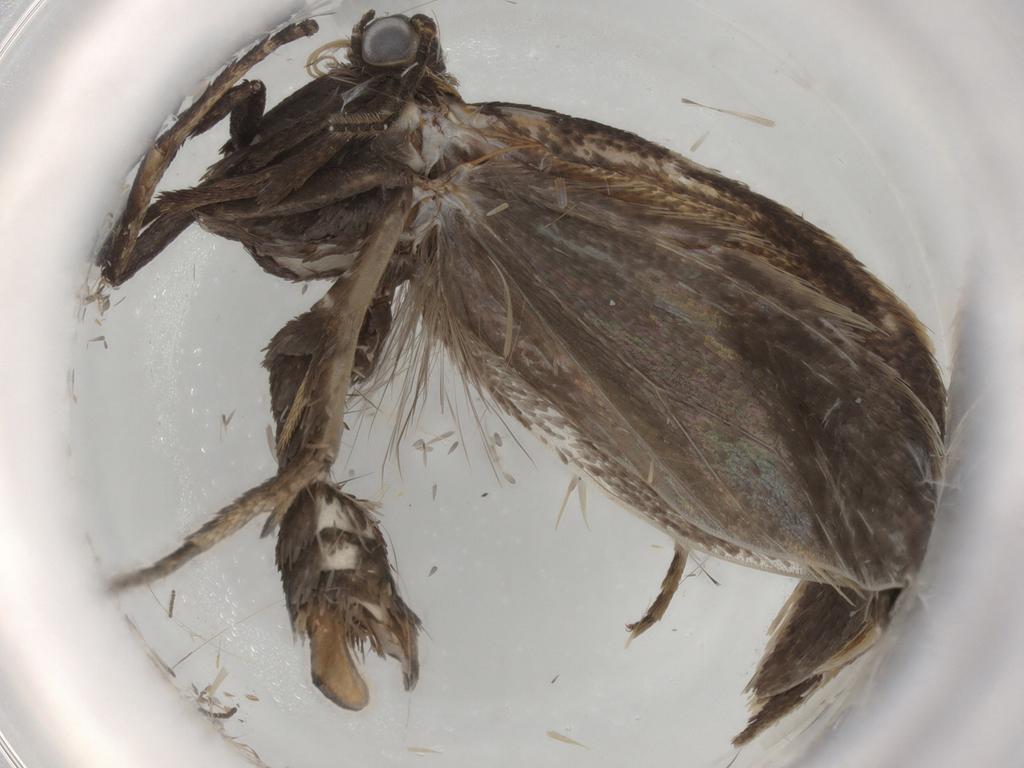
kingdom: Animalia
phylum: Arthropoda
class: Insecta
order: Lepidoptera
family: Crambidae
